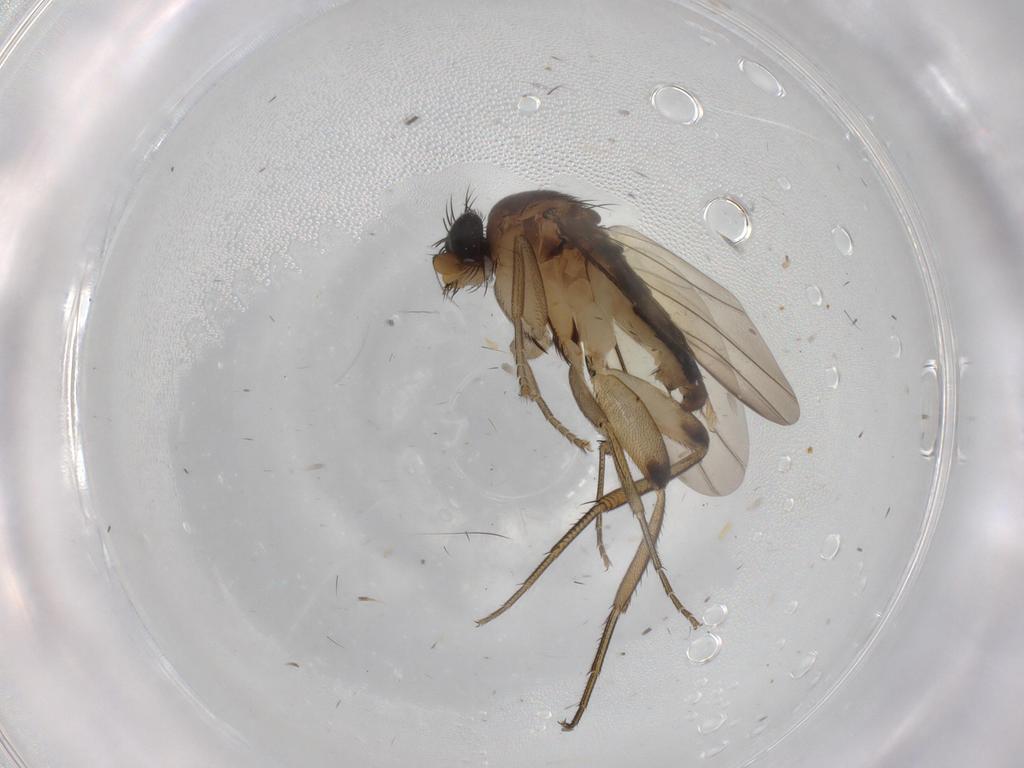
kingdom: Animalia
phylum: Arthropoda
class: Insecta
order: Diptera
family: Phoridae
